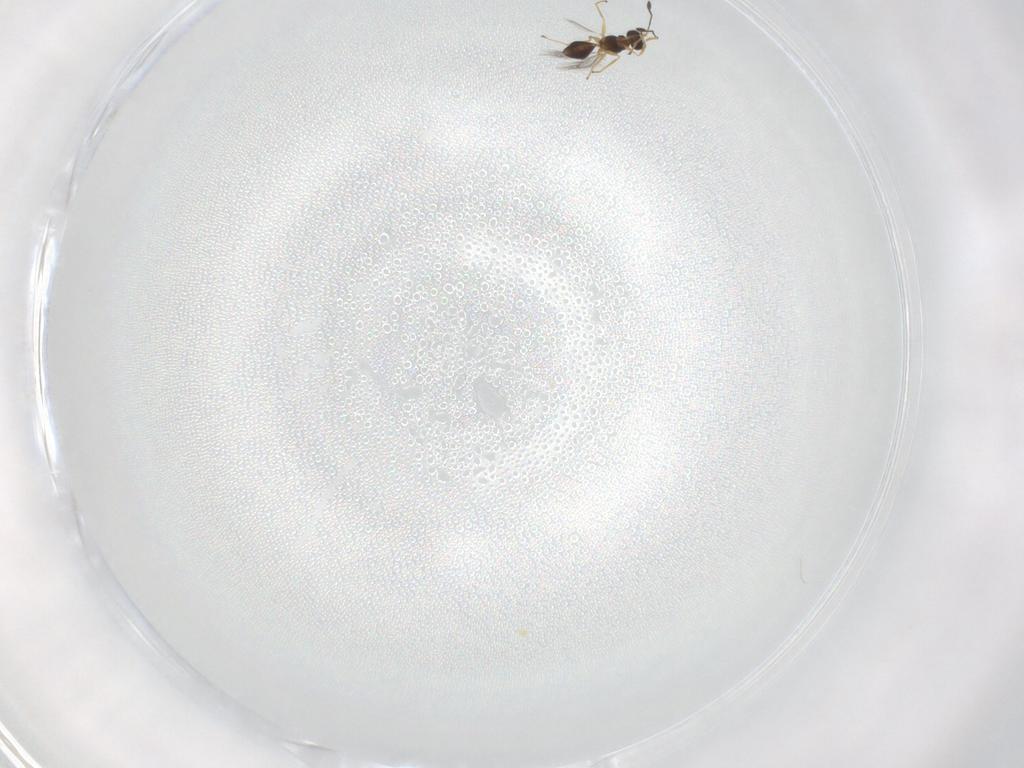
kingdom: Animalia
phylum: Arthropoda
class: Insecta
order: Hymenoptera
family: Mymaridae
